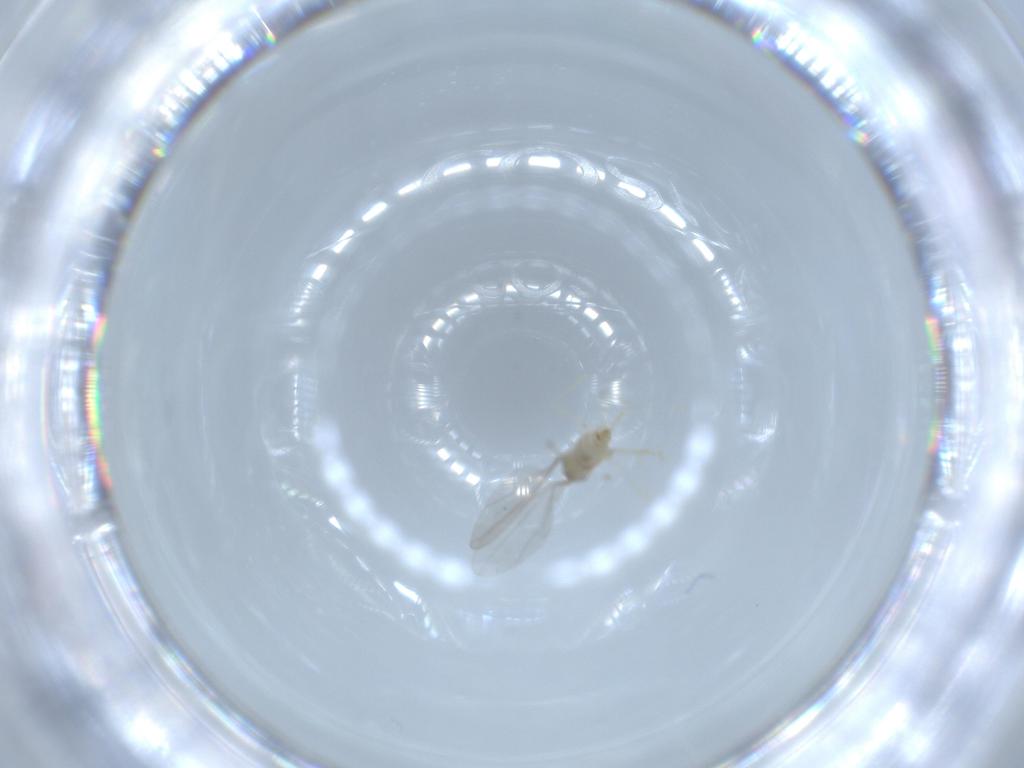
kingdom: Animalia
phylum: Arthropoda
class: Insecta
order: Diptera
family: Cecidomyiidae
